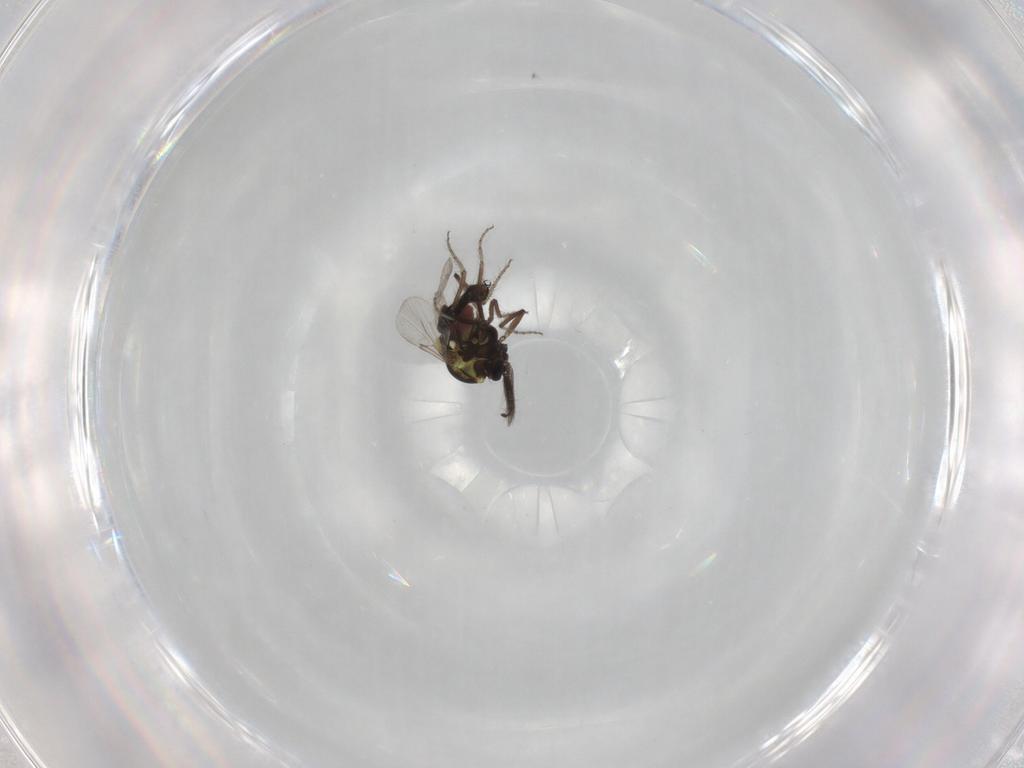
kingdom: Animalia
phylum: Arthropoda
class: Insecta
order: Diptera
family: Ceratopogonidae
